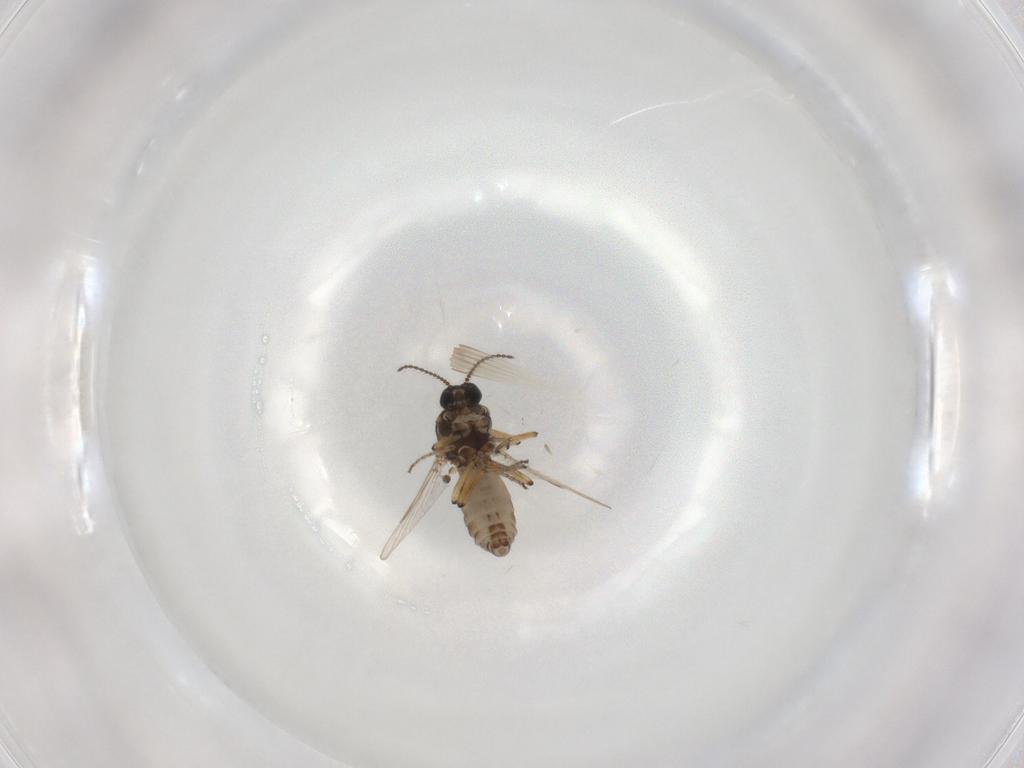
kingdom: Animalia
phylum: Arthropoda
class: Insecta
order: Diptera
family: Ceratopogonidae
